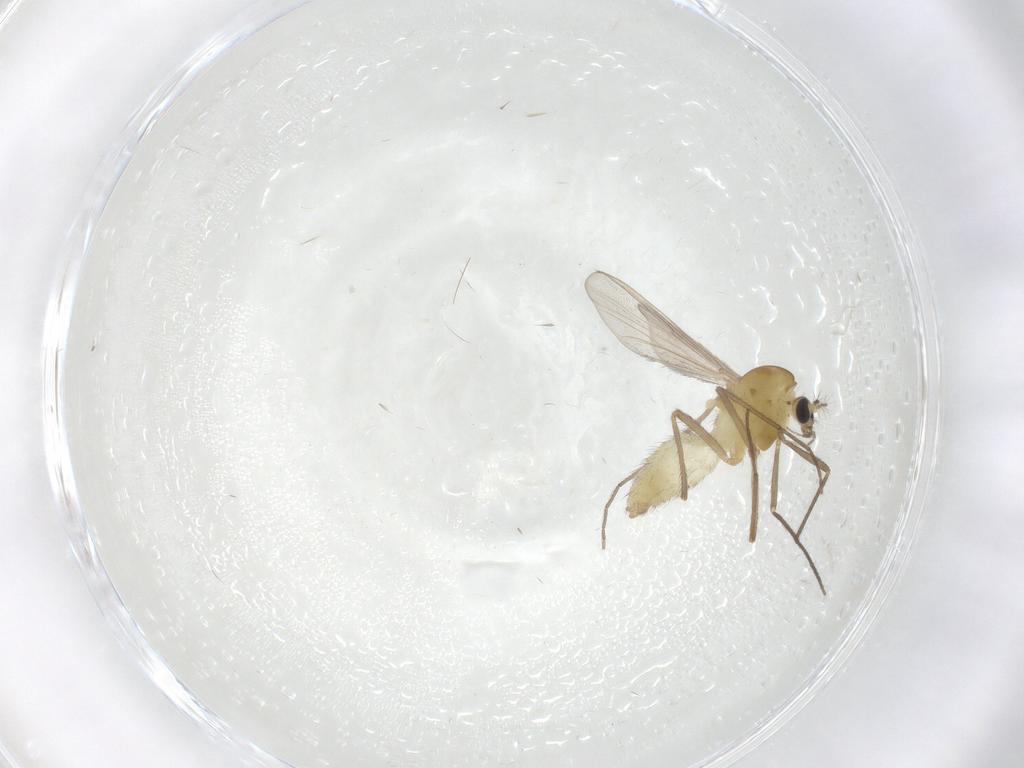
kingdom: Animalia
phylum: Arthropoda
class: Insecta
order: Diptera
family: Chironomidae
